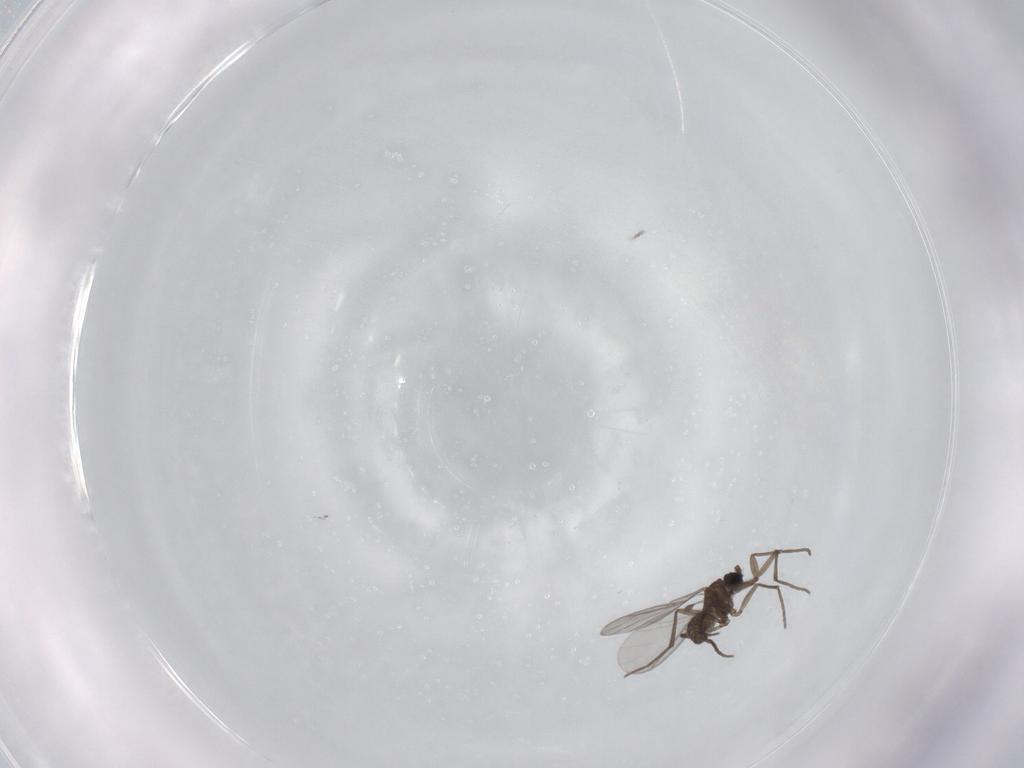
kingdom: Animalia
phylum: Arthropoda
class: Insecta
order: Diptera
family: Sciaridae
